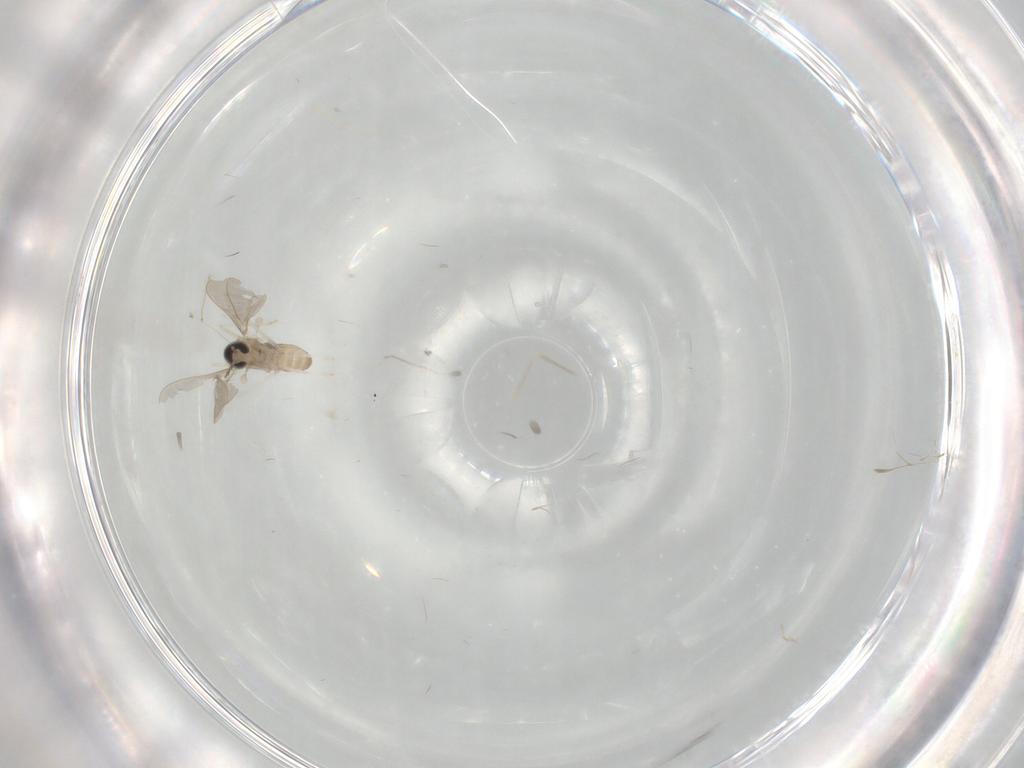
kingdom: Animalia
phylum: Arthropoda
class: Insecta
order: Diptera
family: Cecidomyiidae
